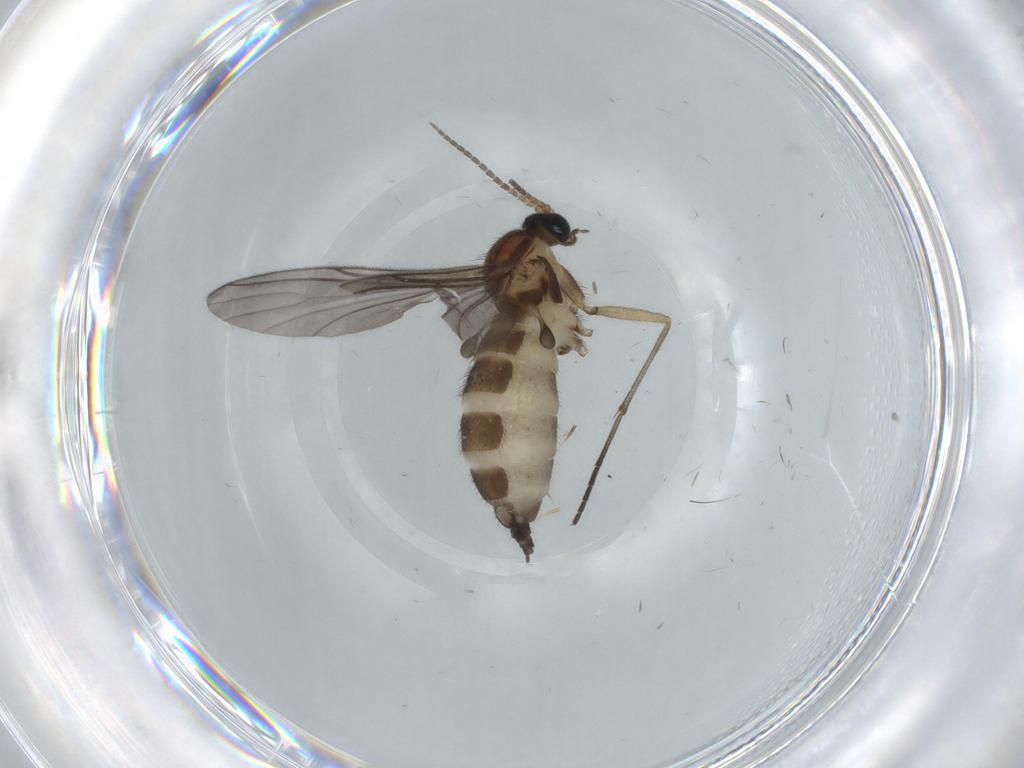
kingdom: Animalia
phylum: Arthropoda
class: Insecta
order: Diptera
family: Sciaridae
